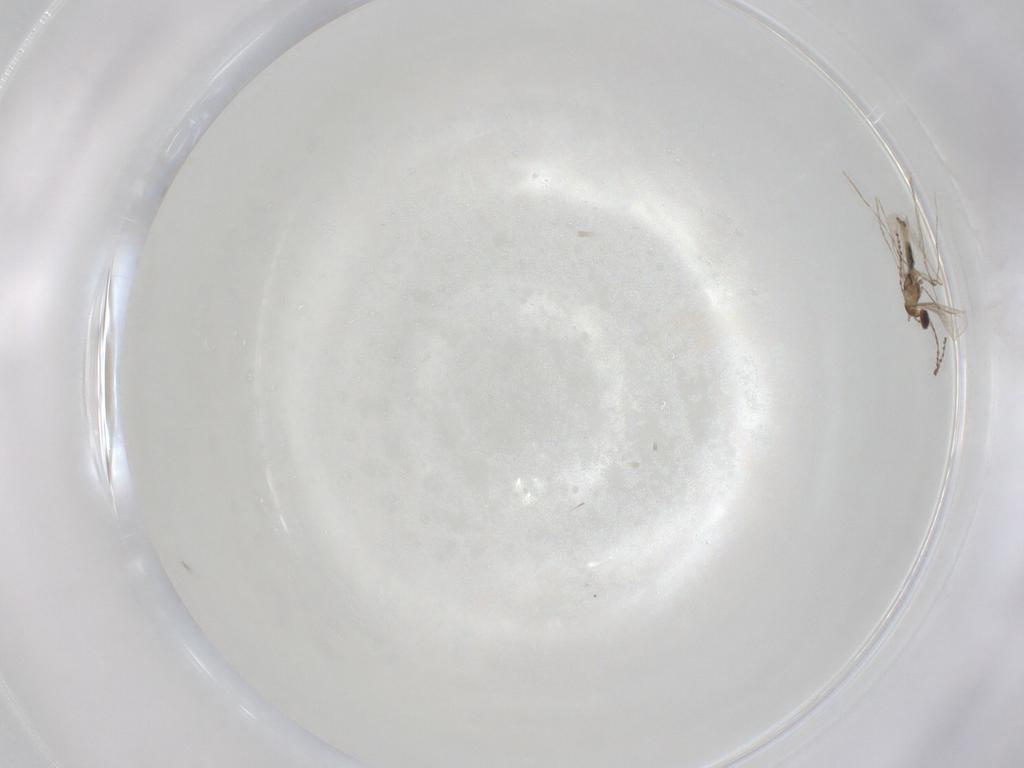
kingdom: Animalia
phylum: Arthropoda
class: Insecta
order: Diptera
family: Cecidomyiidae
